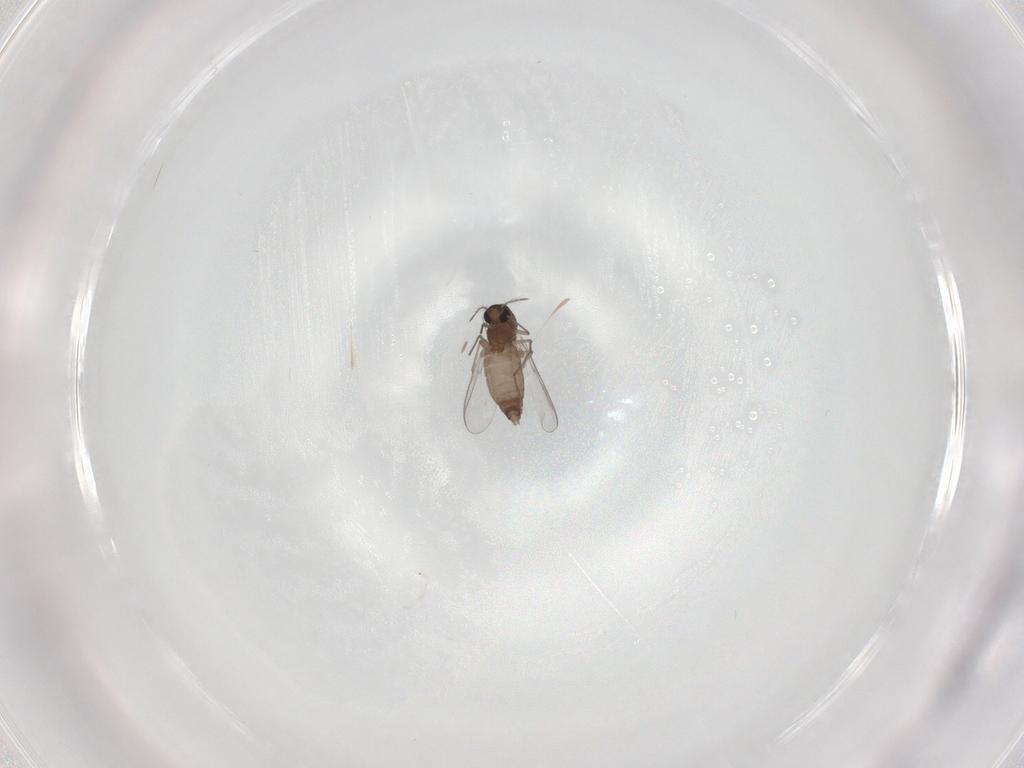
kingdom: Animalia
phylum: Arthropoda
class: Insecta
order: Diptera
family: Chironomidae
